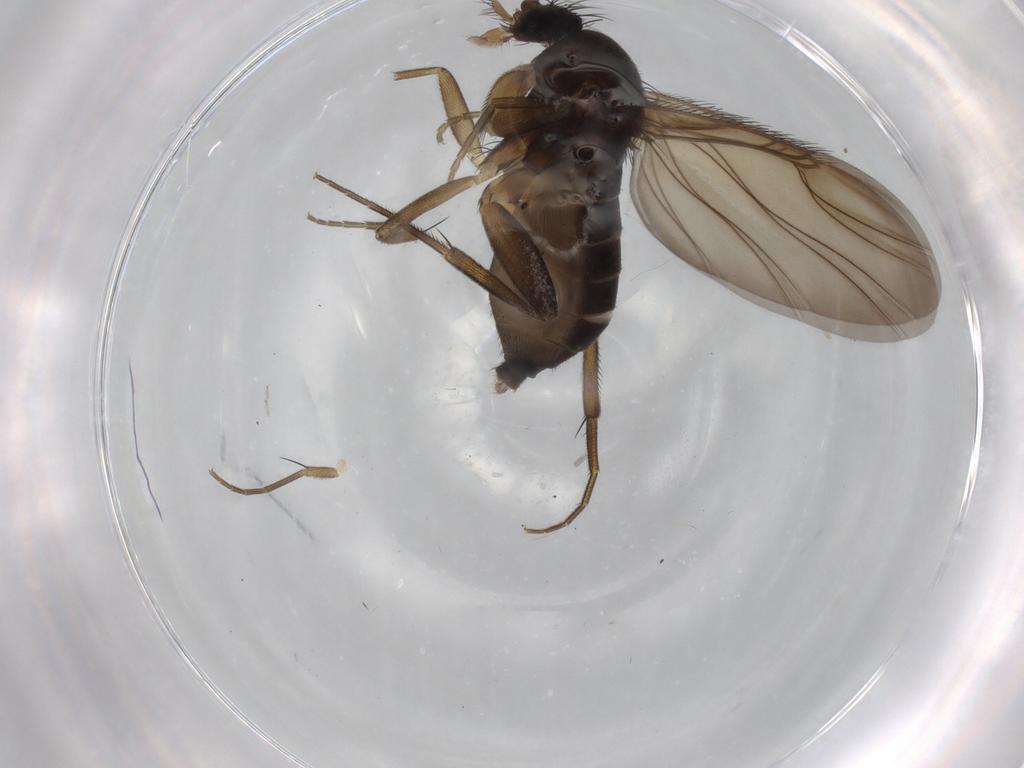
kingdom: Animalia
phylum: Arthropoda
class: Insecta
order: Diptera
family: Phoridae
